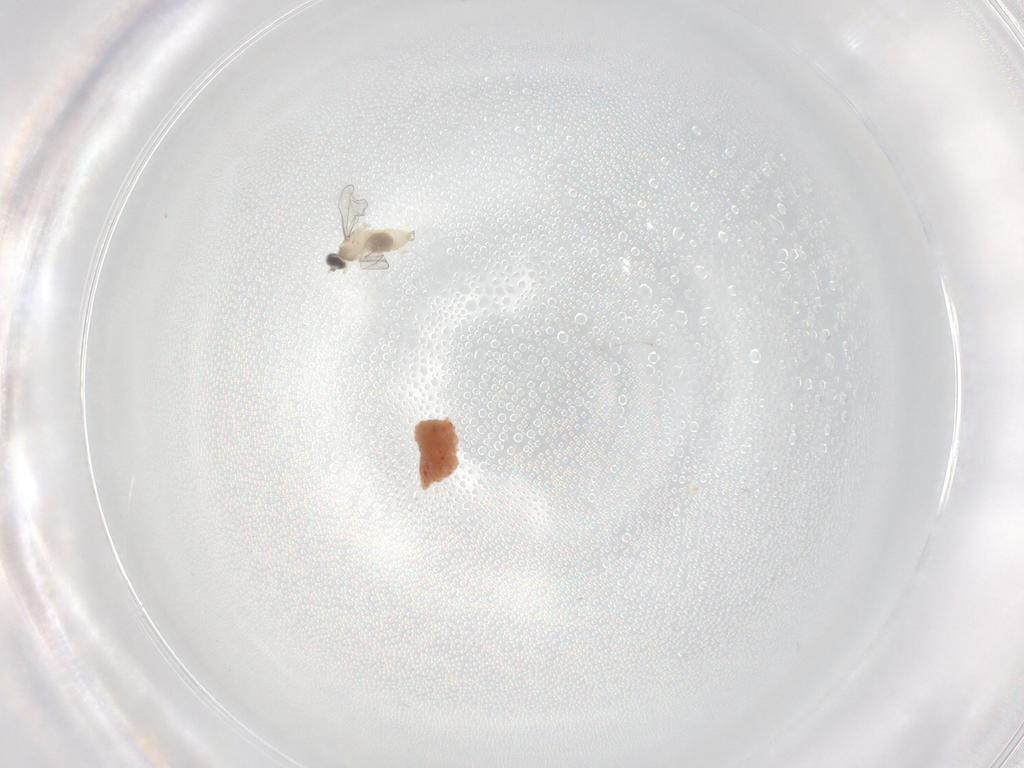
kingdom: Animalia
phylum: Arthropoda
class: Insecta
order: Diptera
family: Chironomidae
